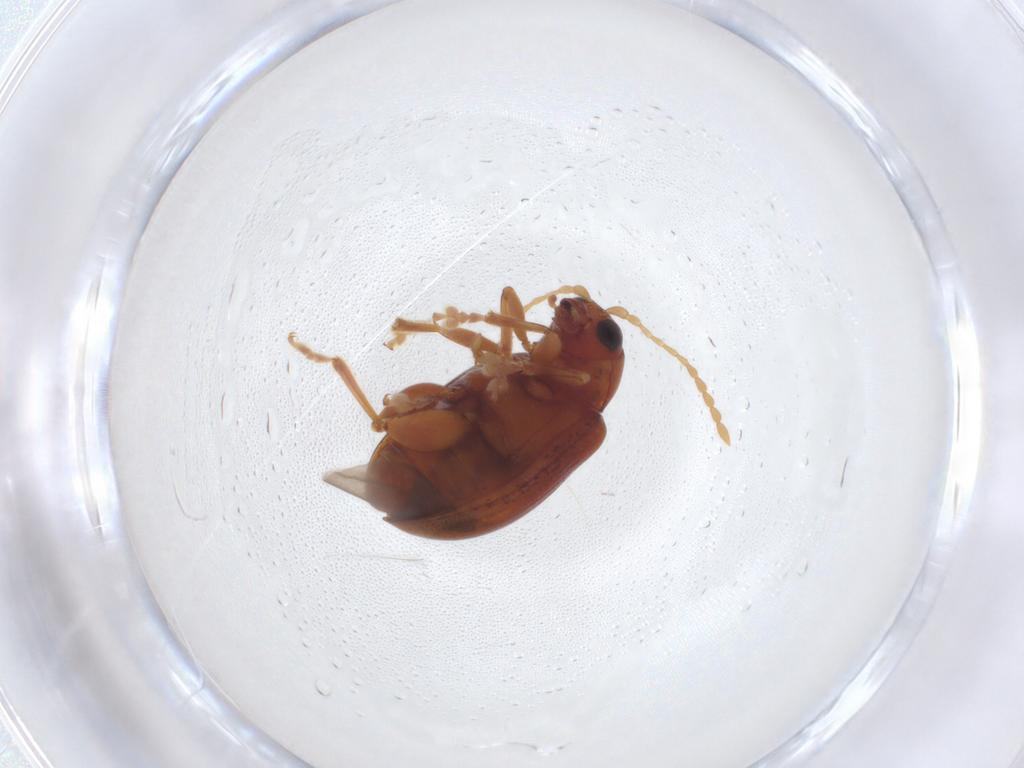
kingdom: Animalia
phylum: Arthropoda
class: Insecta
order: Coleoptera
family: Chrysomelidae
